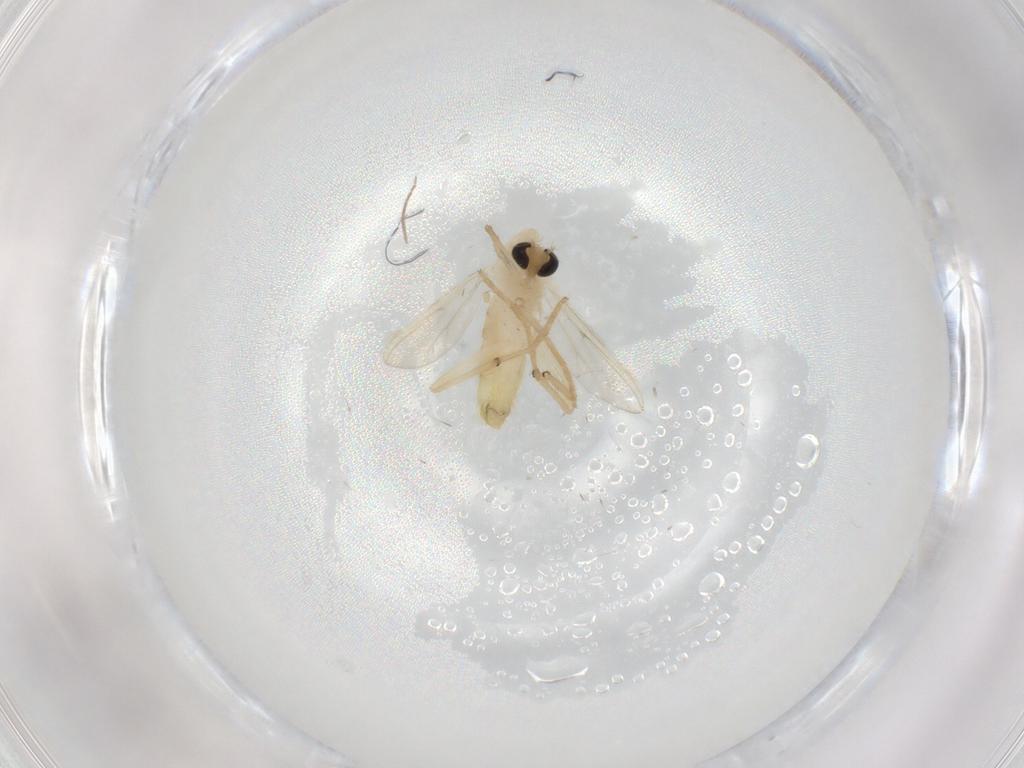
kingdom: Animalia
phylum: Arthropoda
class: Insecta
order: Diptera
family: Chironomidae
